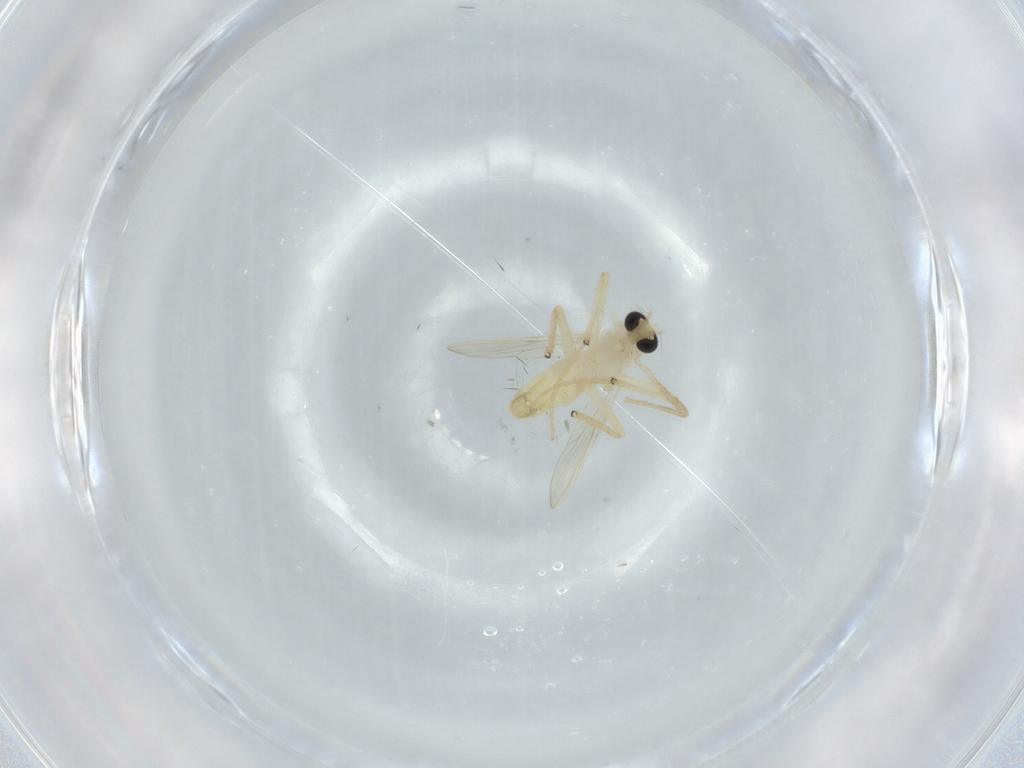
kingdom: Animalia
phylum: Arthropoda
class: Insecta
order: Diptera
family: Chironomidae
